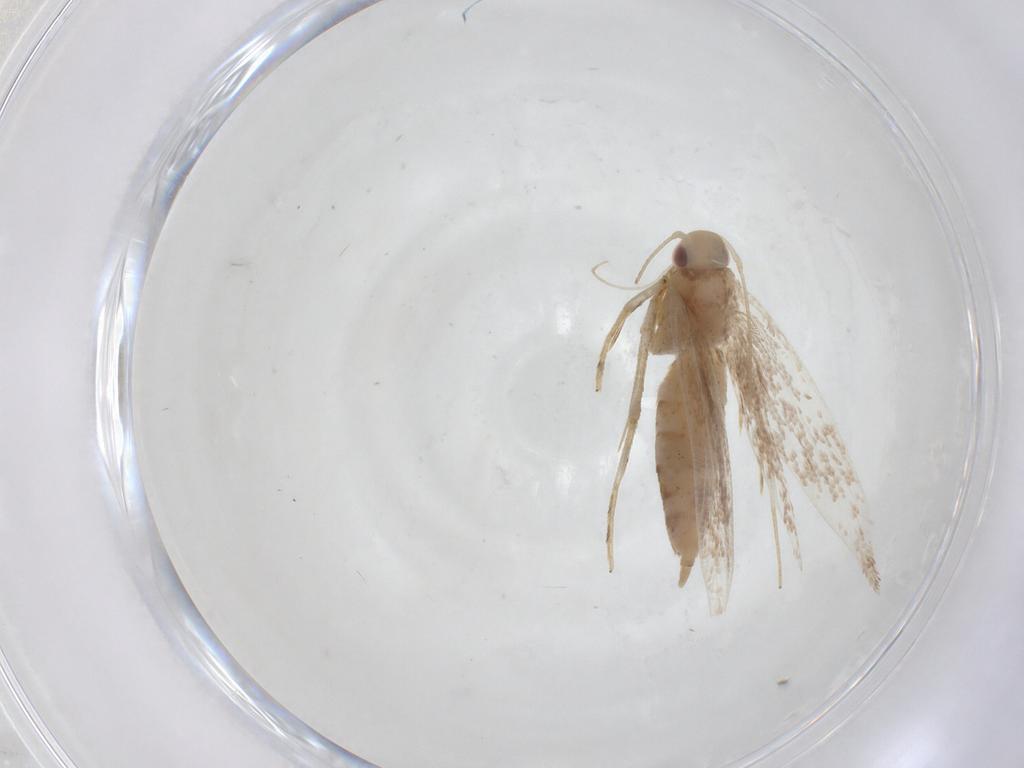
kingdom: Animalia
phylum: Arthropoda
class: Insecta
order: Lepidoptera
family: Cosmopterigidae
